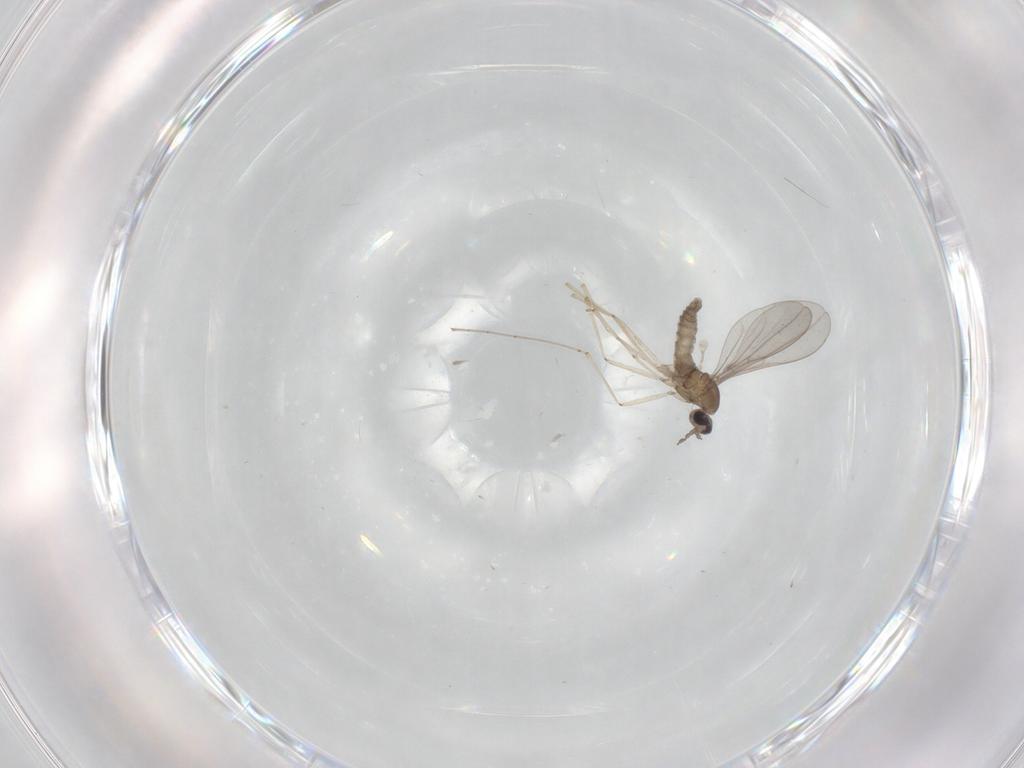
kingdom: Animalia
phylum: Arthropoda
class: Insecta
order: Diptera
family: Cecidomyiidae
